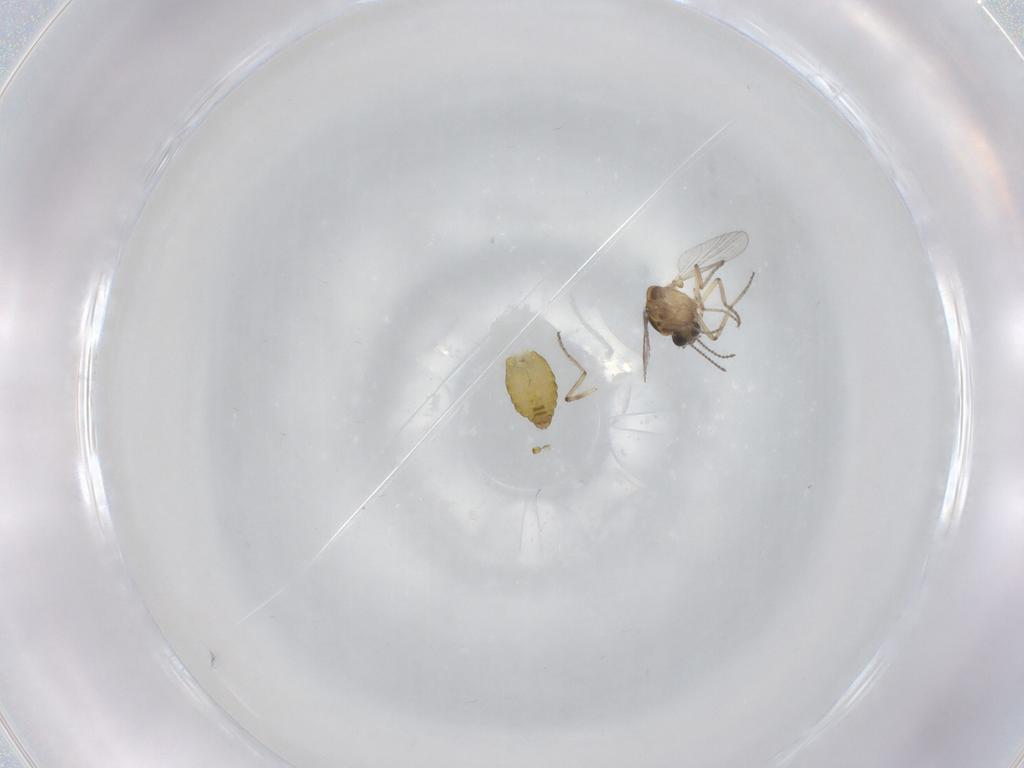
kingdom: Animalia
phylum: Arthropoda
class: Insecta
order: Diptera
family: Ceratopogonidae
